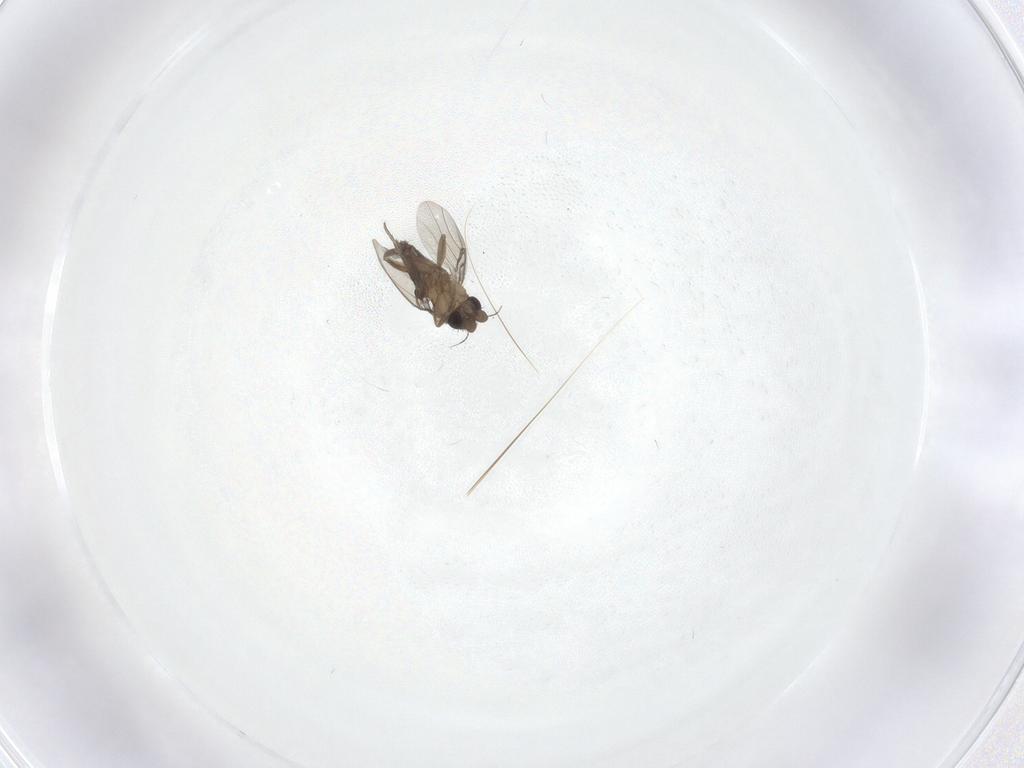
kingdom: Animalia
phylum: Arthropoda
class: Insecta
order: Diptera
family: Phoridae
